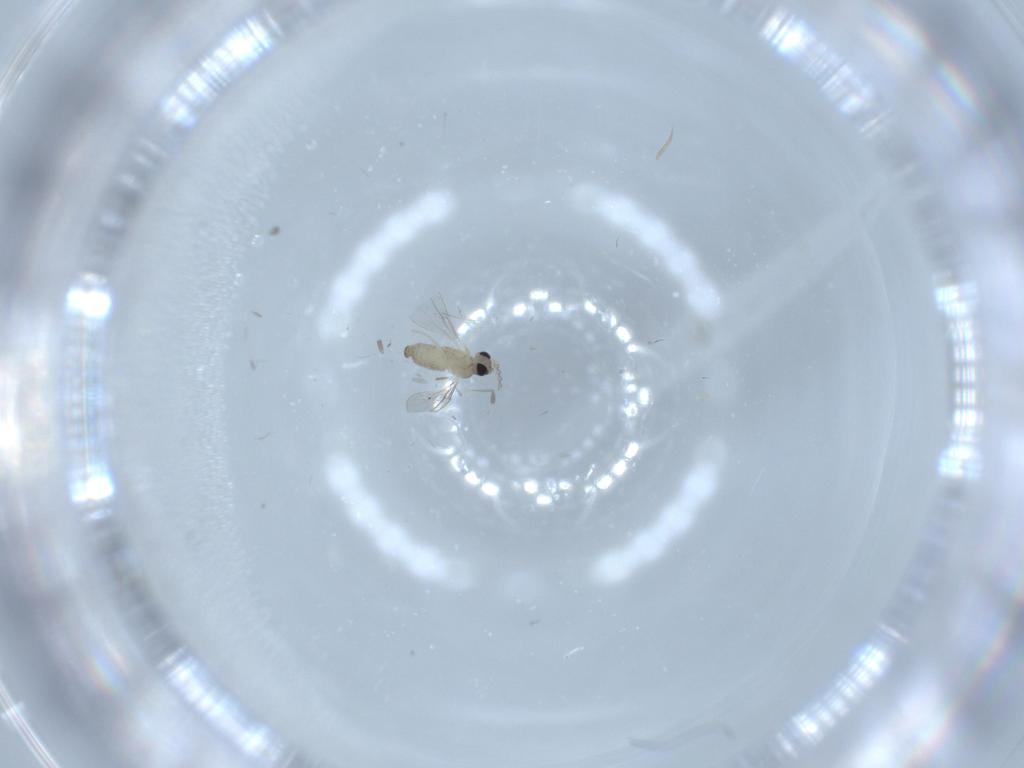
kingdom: Animalia
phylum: Arthropoda
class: Insecta
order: Diptera
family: Cecidomyiidae
